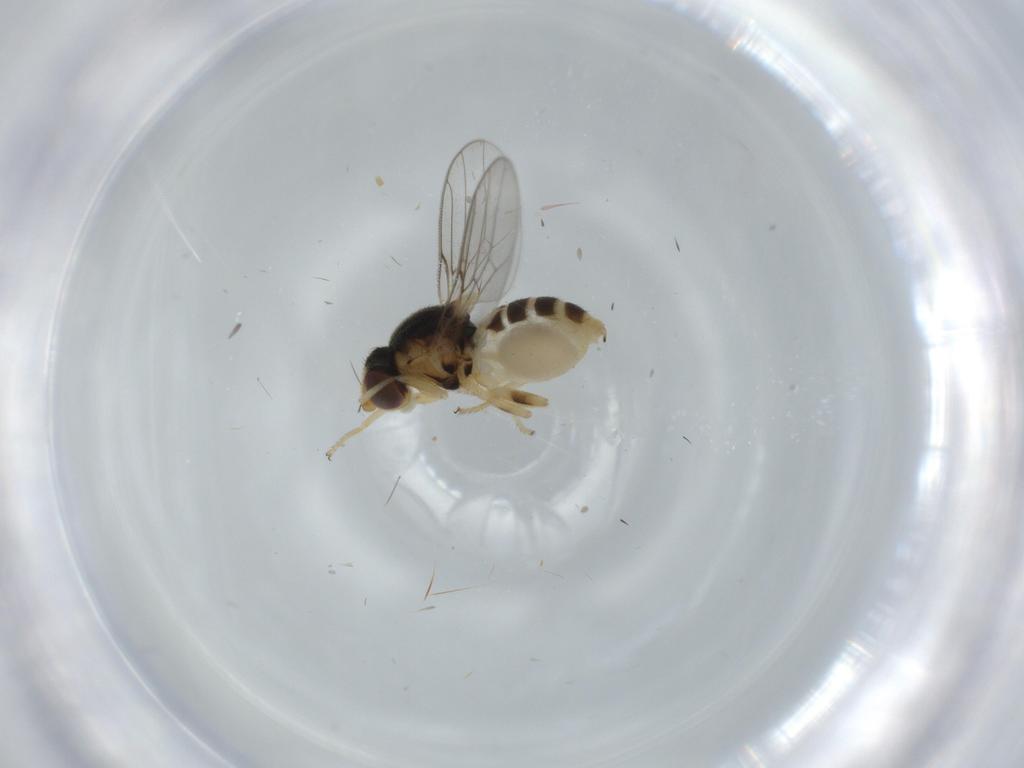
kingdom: Animalia
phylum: Arthropoda
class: Insecta
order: Diptera
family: Chloropidae
